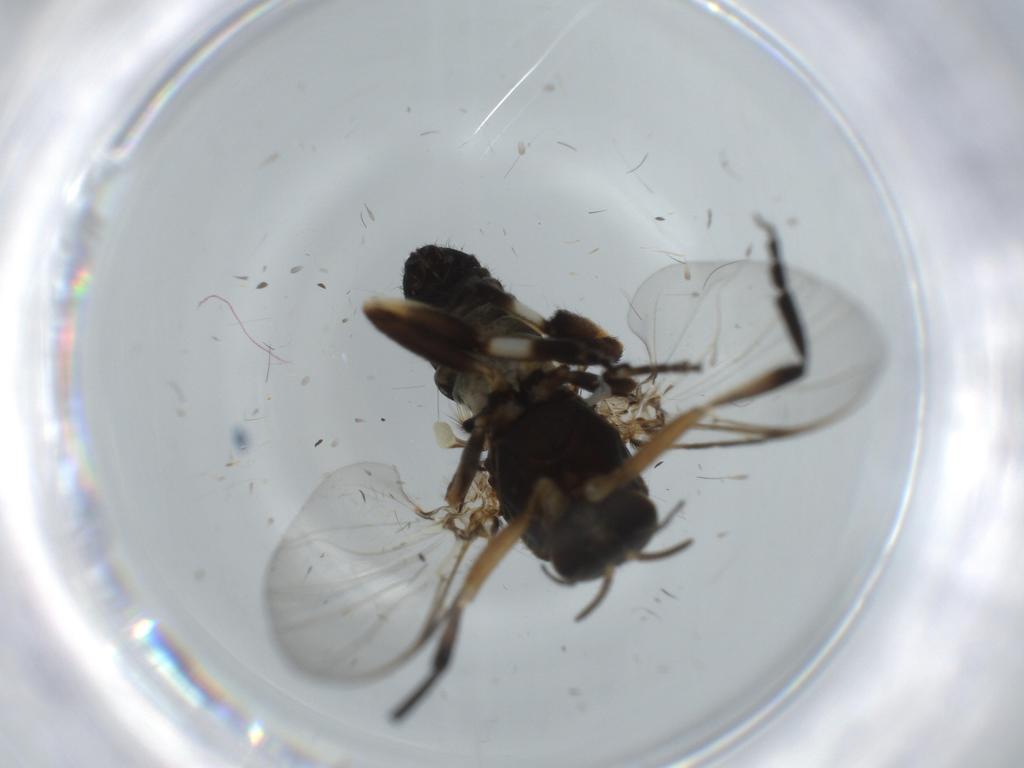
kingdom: Animalia
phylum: Arthropoda
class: Insecta
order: Diptera
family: Sciaridae
